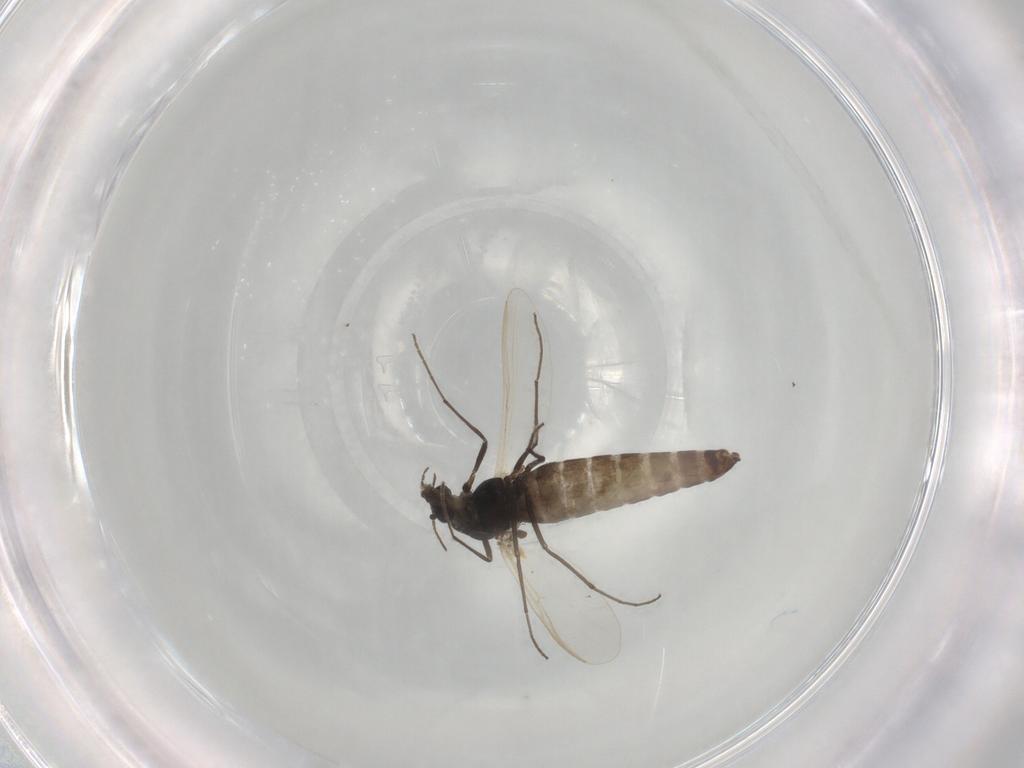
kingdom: Animalia
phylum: Arthropoda
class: Insecta
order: Diptera
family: Chironomidae
